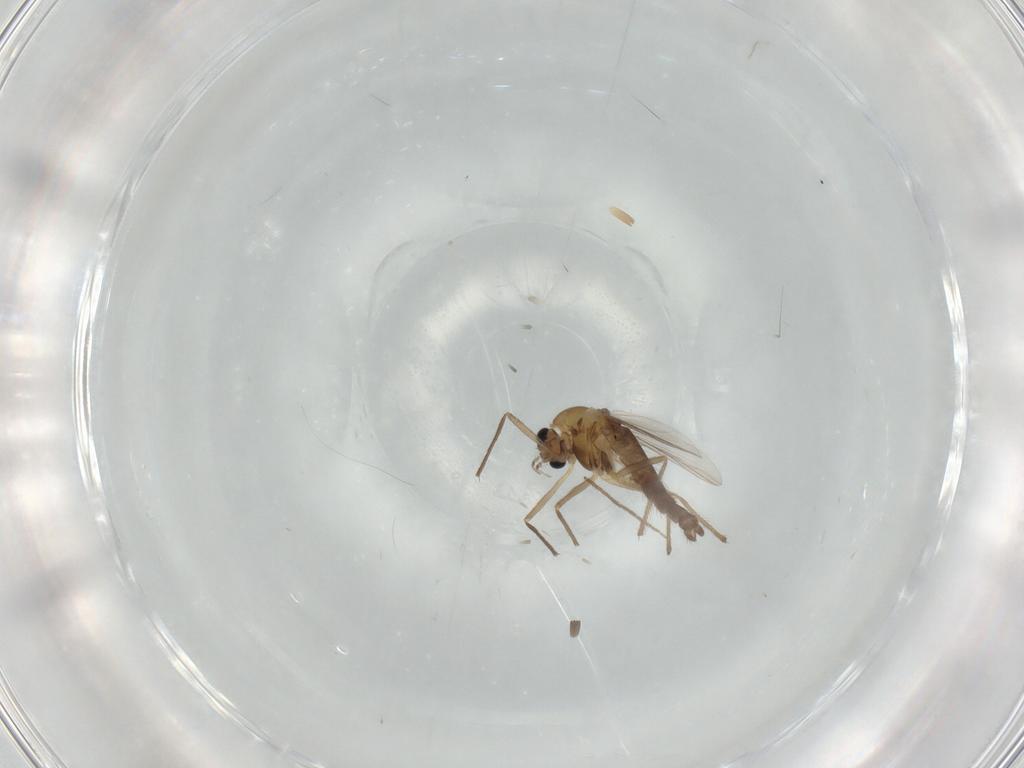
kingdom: Animalia
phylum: Arthropoda
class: Insecta
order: Diptera
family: Chironomidae
